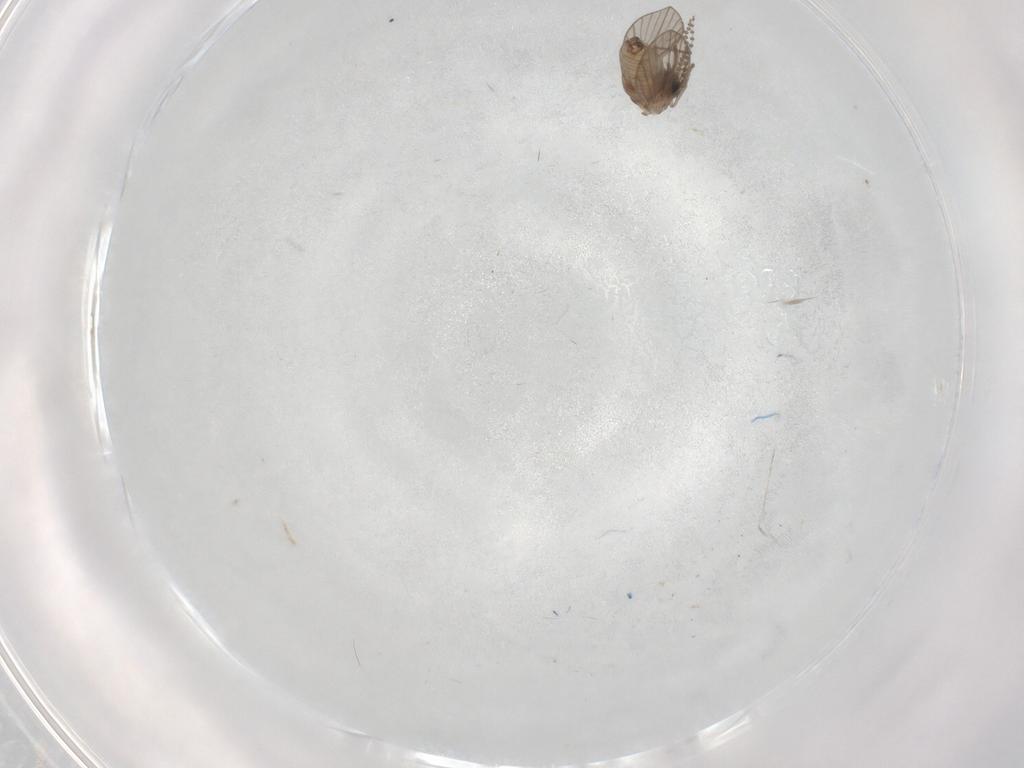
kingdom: Animalia
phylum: Arthropoda
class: Insecta
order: Diptera
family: Psychodidae
